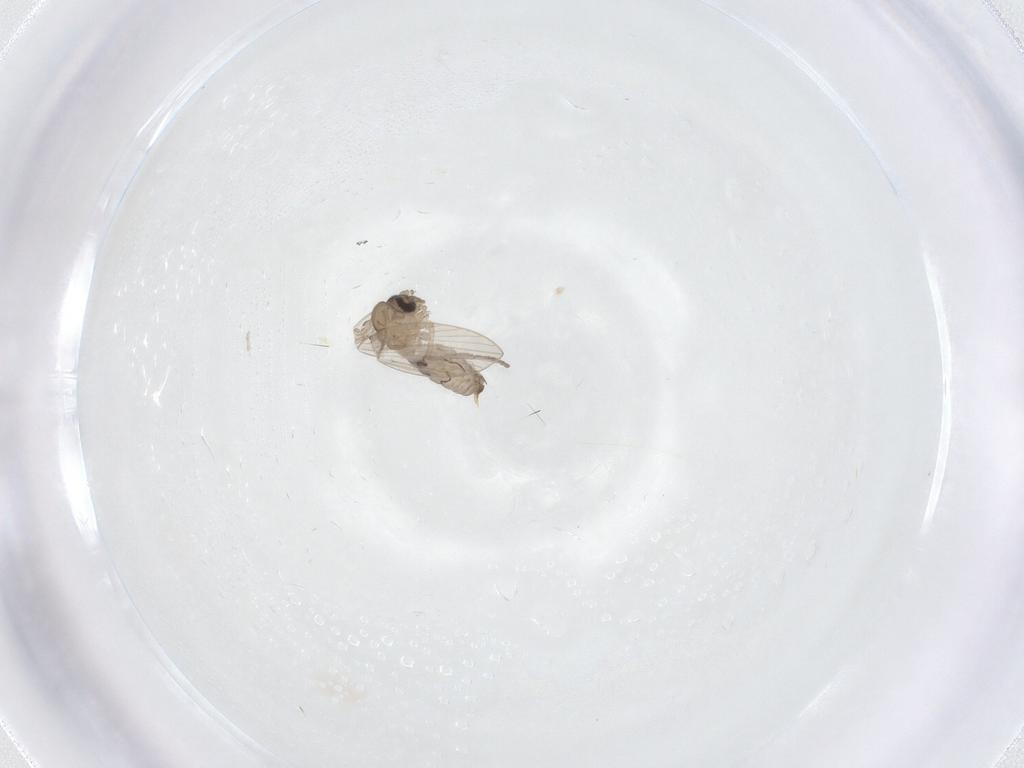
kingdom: Animalia
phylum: Arthropoda
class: Insecta
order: Diptera
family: Psychodidae
